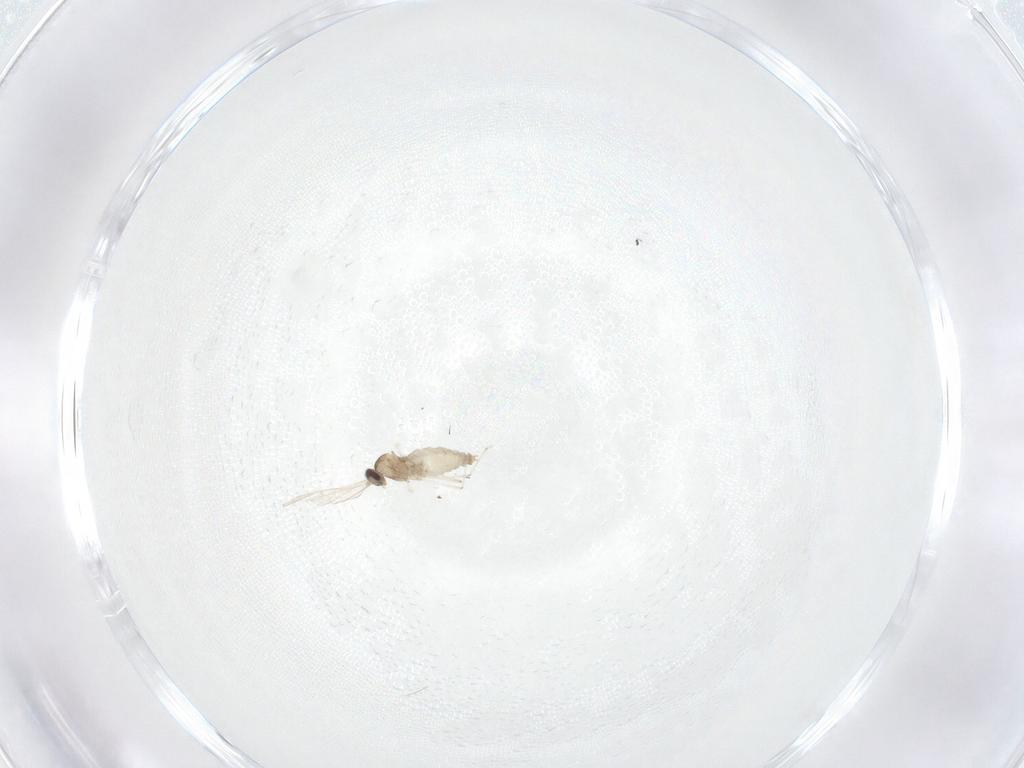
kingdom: Animalia
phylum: Arthropoda
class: Insecta
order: Diptera
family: Cecidomyiidae
